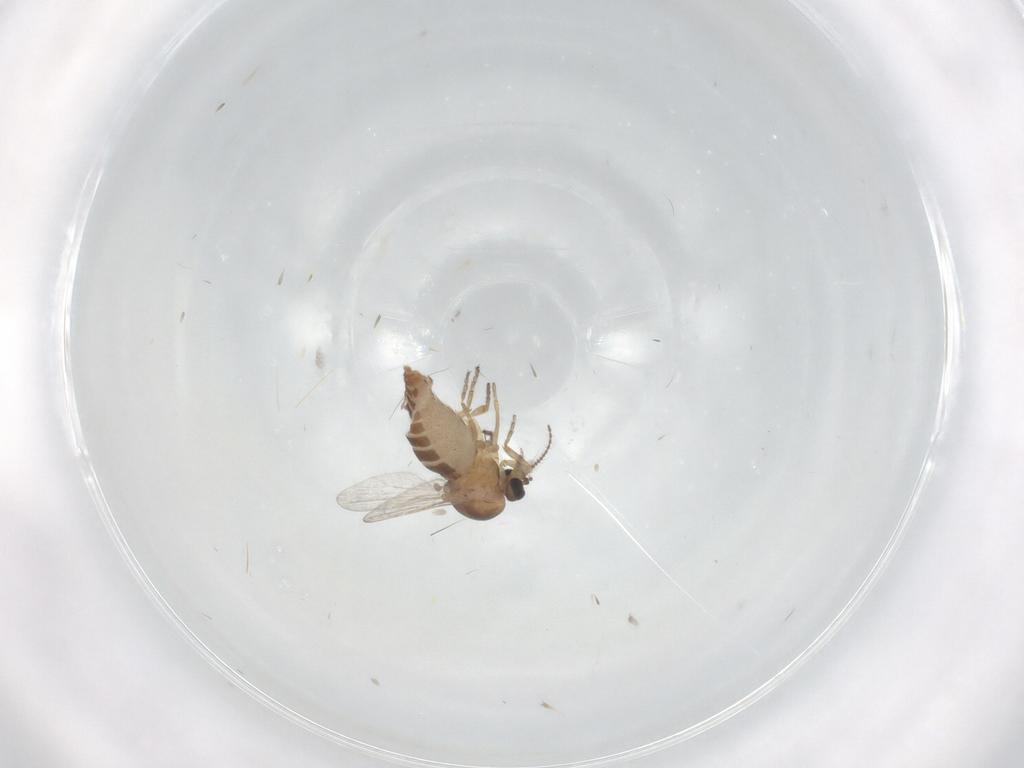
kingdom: Animalia
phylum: Arthropoda
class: Insecta
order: Diptera
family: Ceratopogonidae
